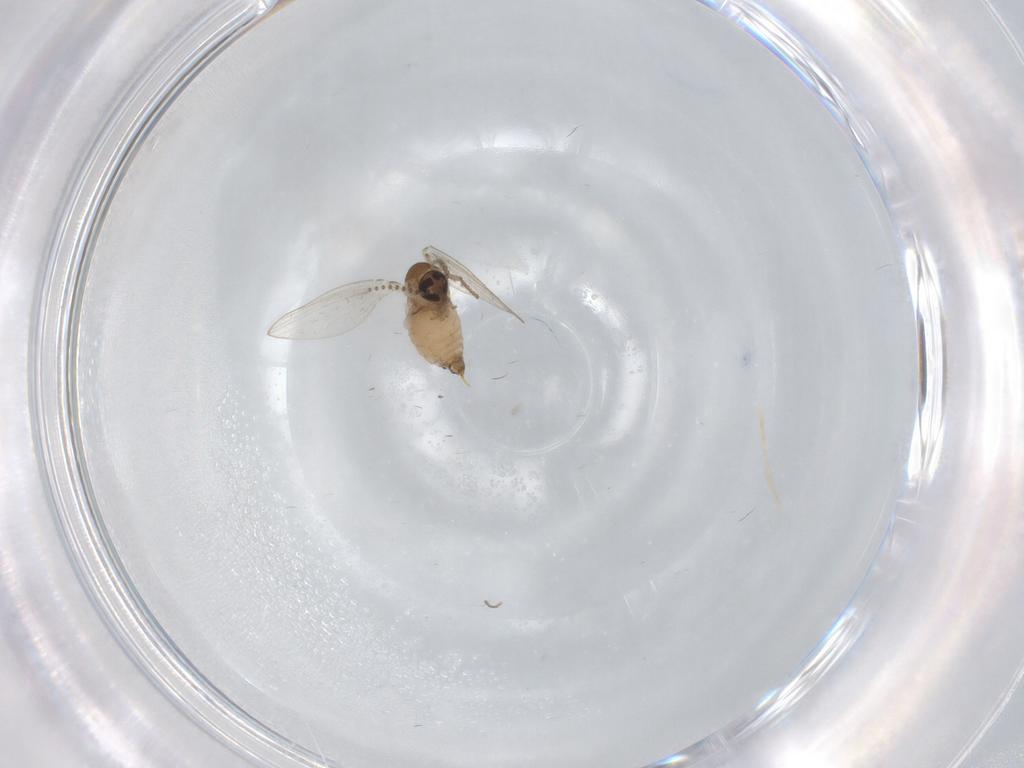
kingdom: Animalia
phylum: Arthropoda
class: Insecta
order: Diptera
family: Psychodidae
